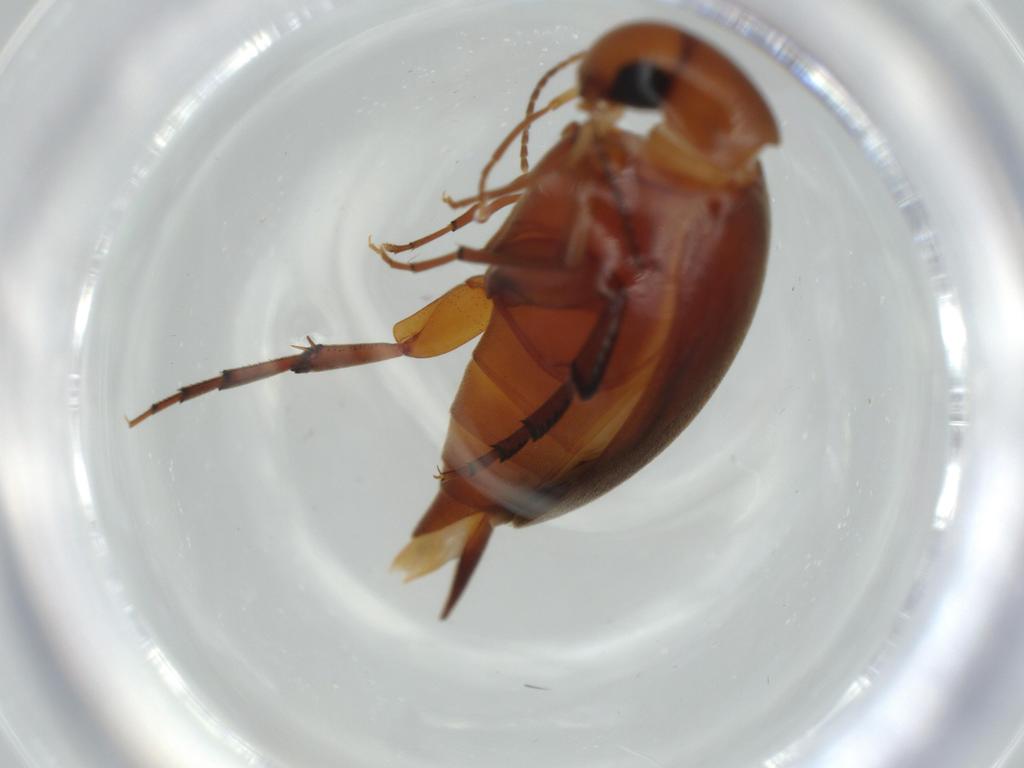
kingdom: Animalia
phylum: Arthropoda
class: Insecta
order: Coleoptera
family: Mordellidae
